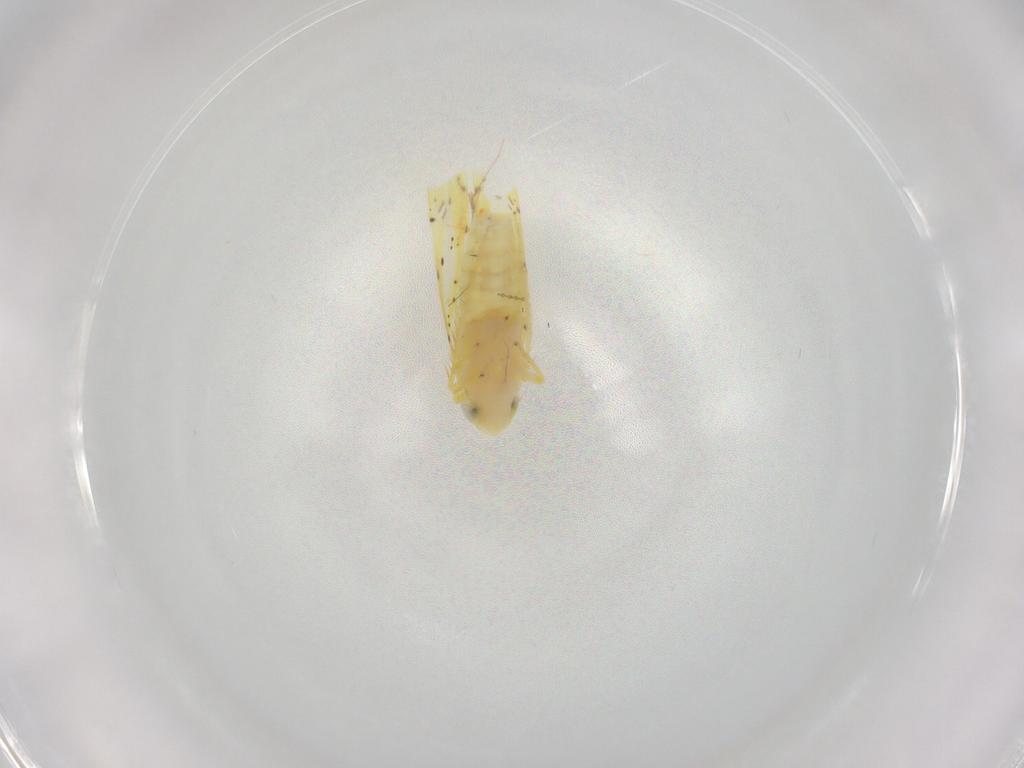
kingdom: Animalia
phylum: Arthropoda
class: Insecta
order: Hemiptera
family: Cicadellidae
